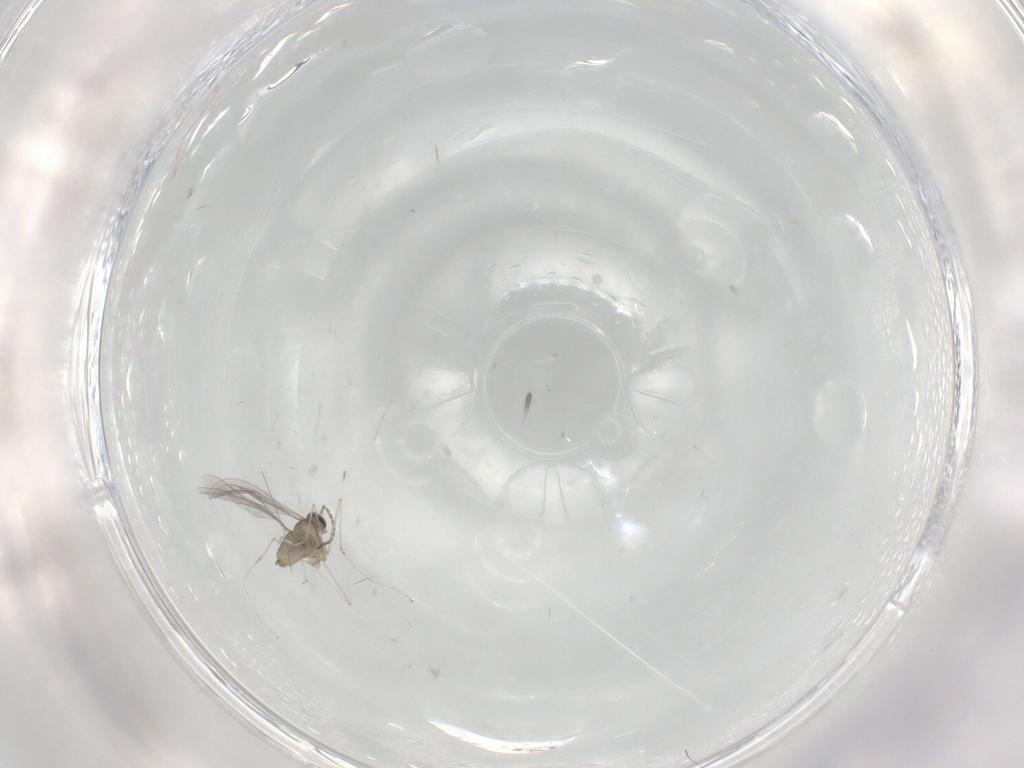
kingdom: Animalia
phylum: Arthropoda
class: Insecta
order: Diptera
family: Cecidomyiidae
